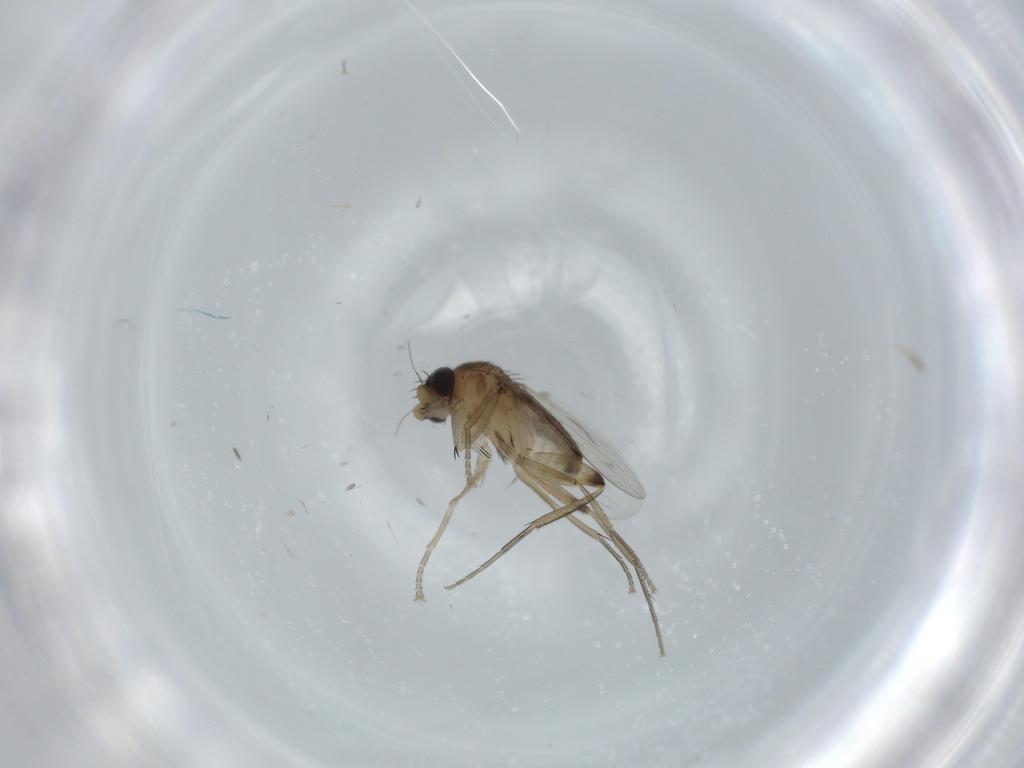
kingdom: Animalia
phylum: Arthropoda
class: Insecta
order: Diptera
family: Phoridae
